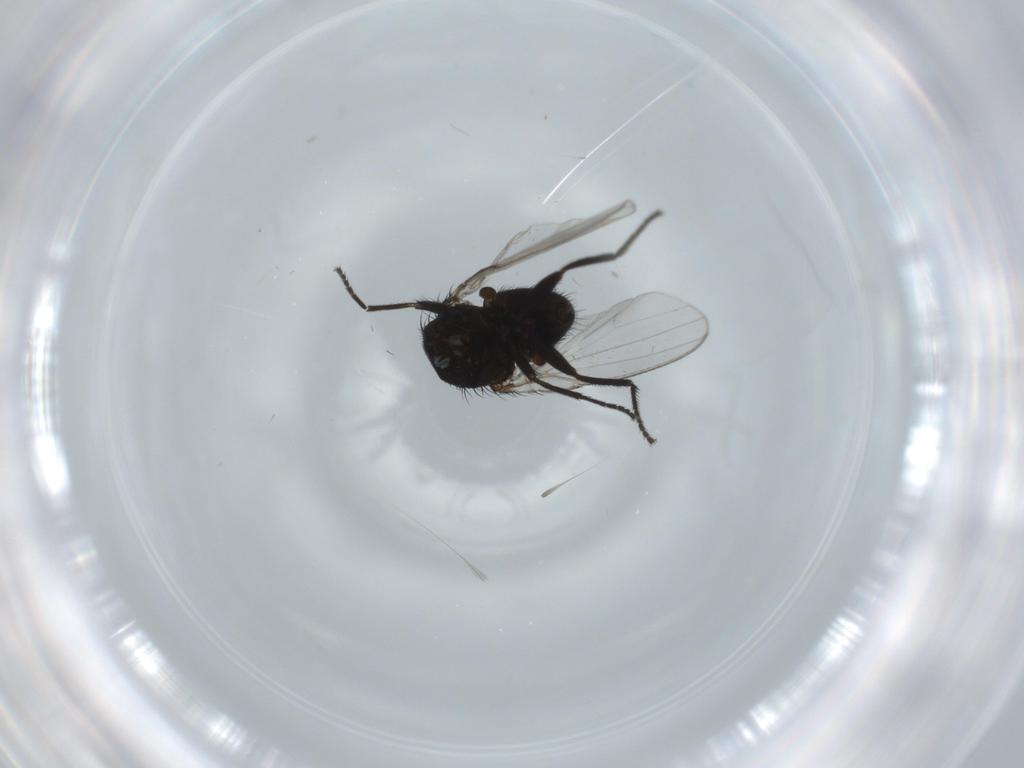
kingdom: Animalia
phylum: Arthropoda
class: Insecta
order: Diptera
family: Milichiidae
